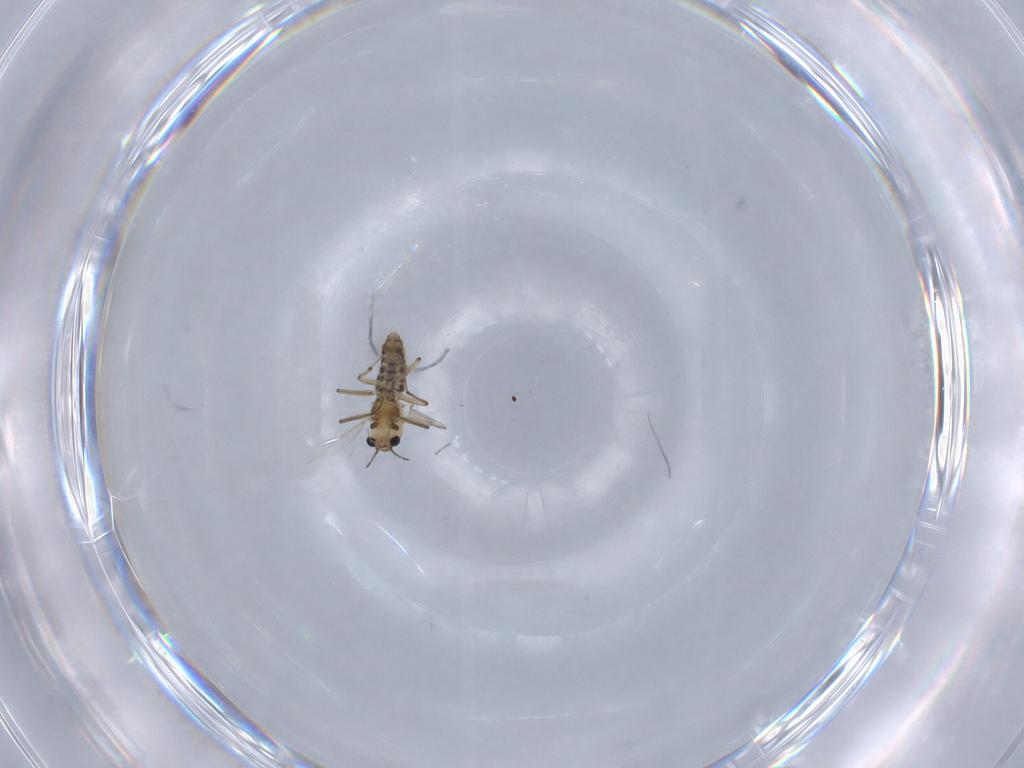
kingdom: Animalia
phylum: Arthropoda
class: Insecta
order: Diptera
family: Chironomidae
